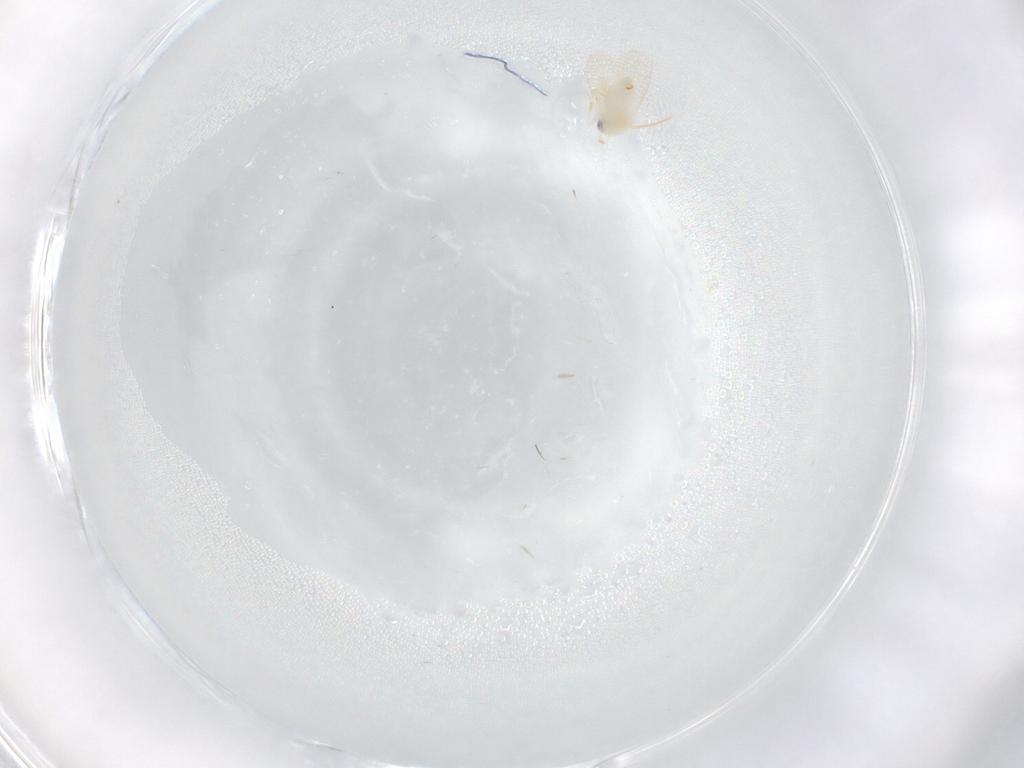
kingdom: Animalia
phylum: Arthropoda
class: Insecta
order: Hemiptera
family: Aleyrodidae
